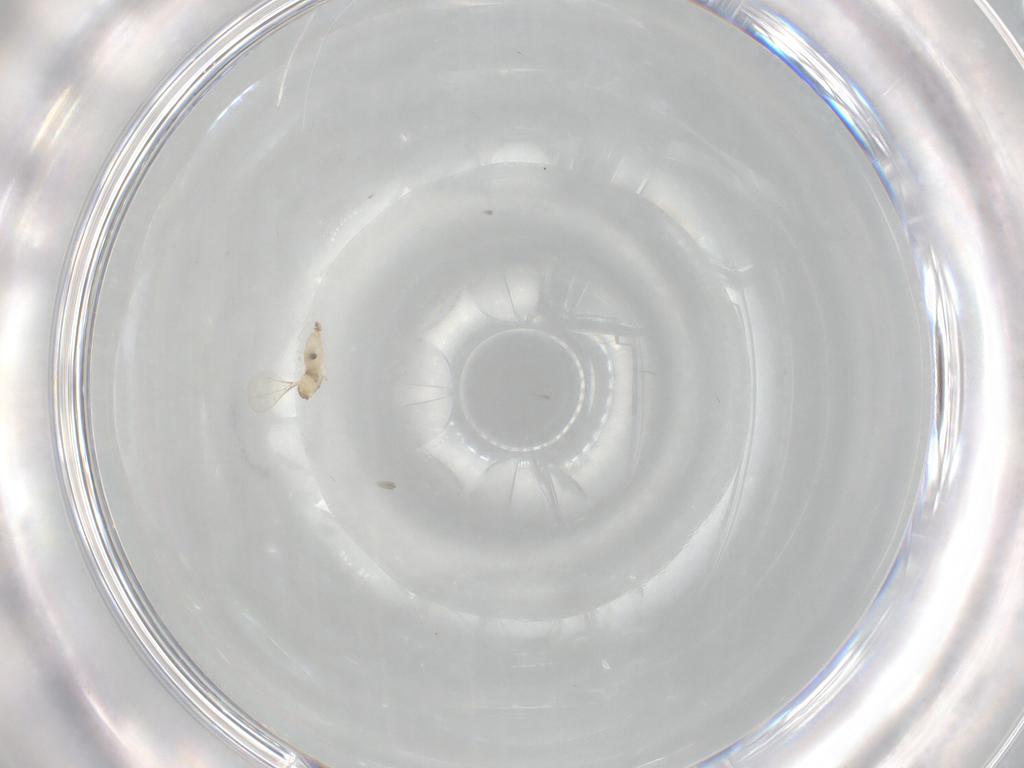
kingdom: Animalia
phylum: Arthropoda
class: Insecta
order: Diptera
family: Cecidomyiidae
